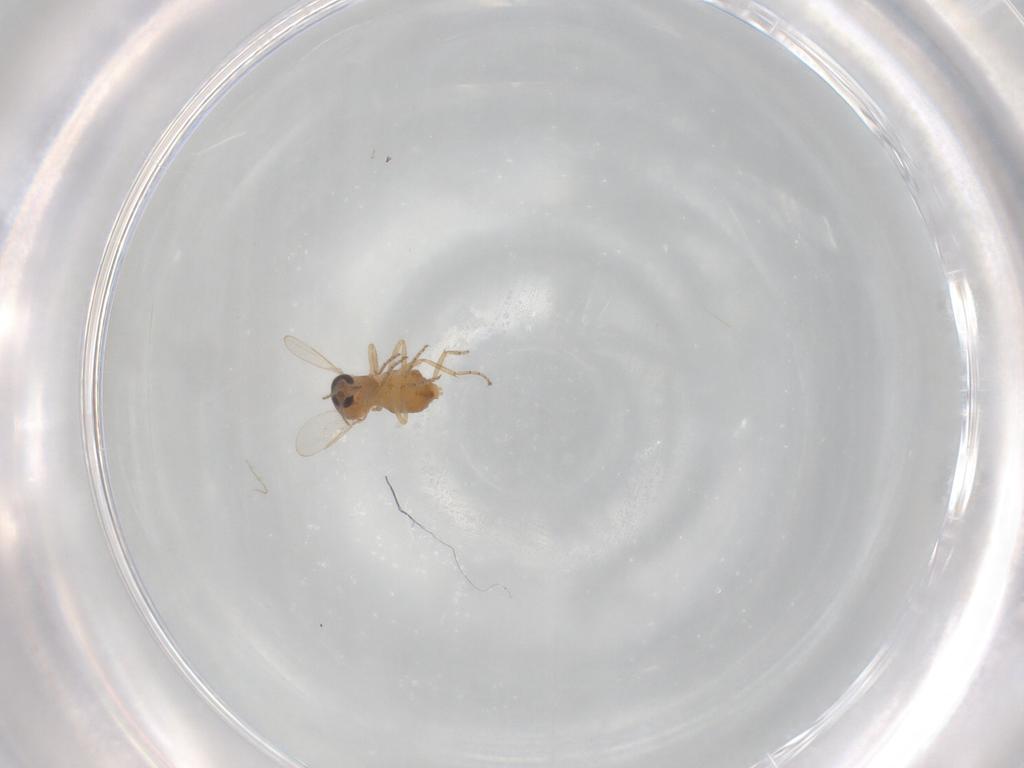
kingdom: Animalia
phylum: Arthropoda
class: Insecta
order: Diptera
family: Ceratopogonidae
